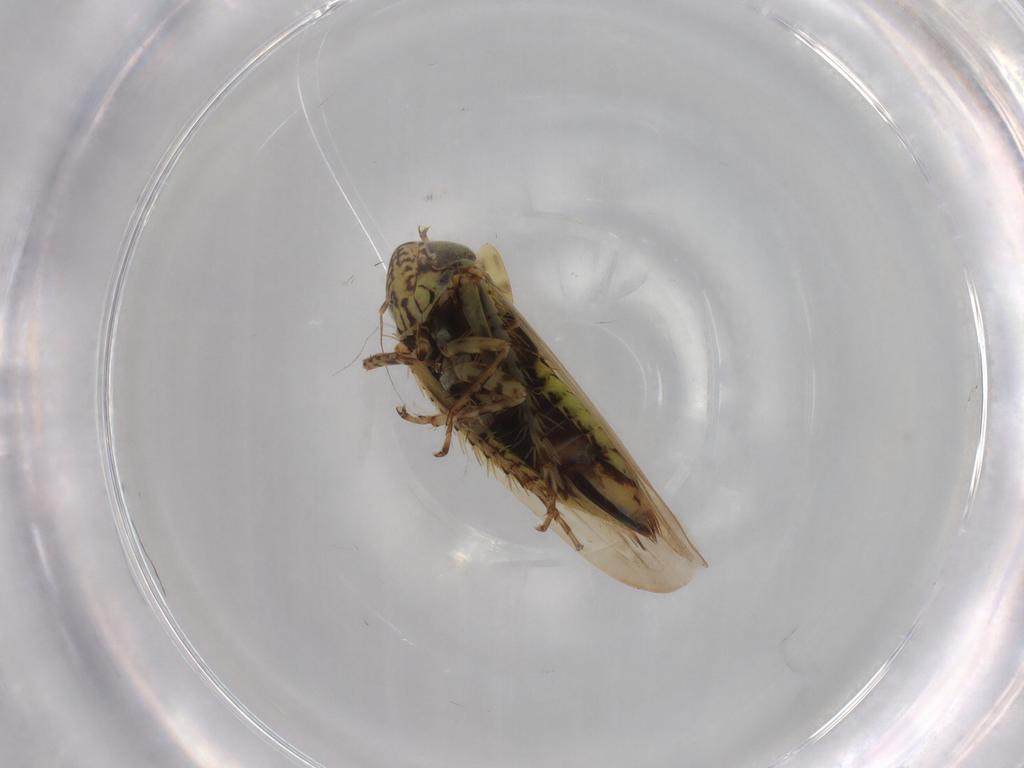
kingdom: Animalia
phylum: Arthropoda
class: Insecta
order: Hemiptera
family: Cicadellidae
